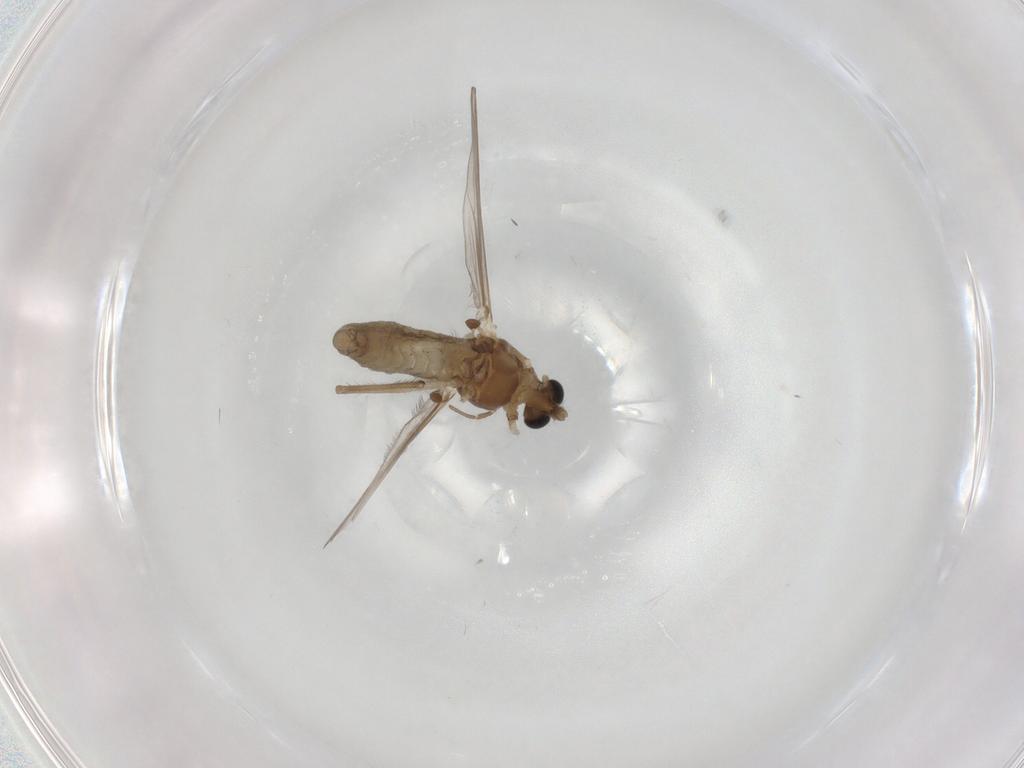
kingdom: Animalia
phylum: Arthropoda
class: Insecta
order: Diptera
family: Chironomidae
